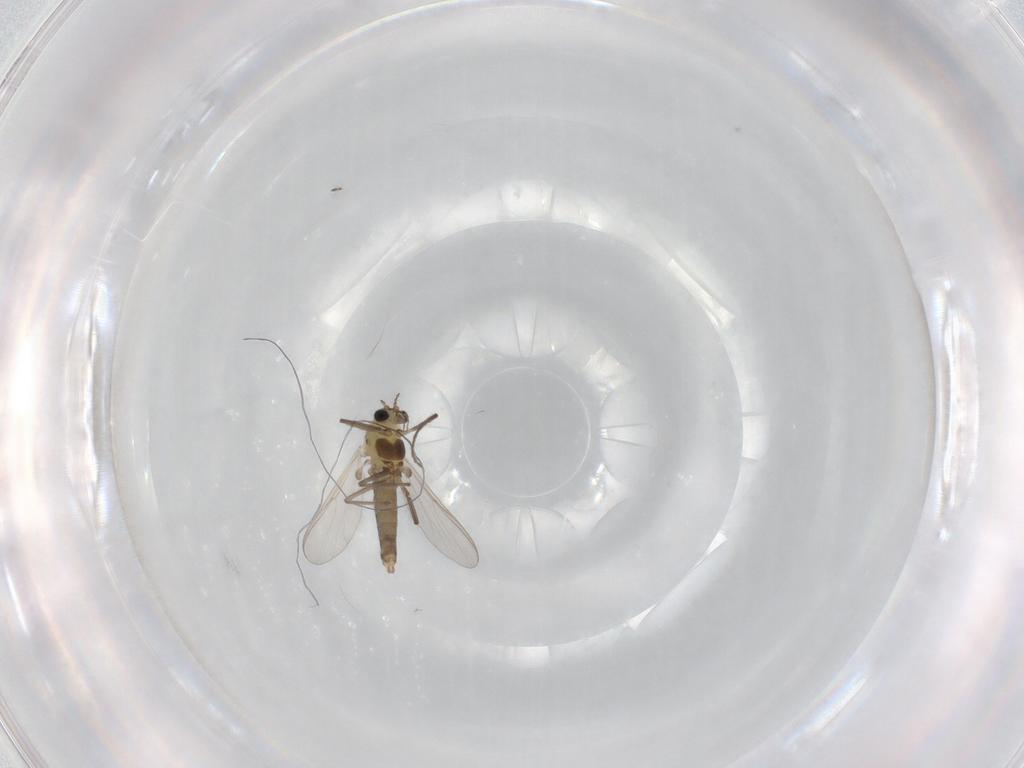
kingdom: Animalia
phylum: Arthropoda
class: Insecta
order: Diptera
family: Chironomidae
